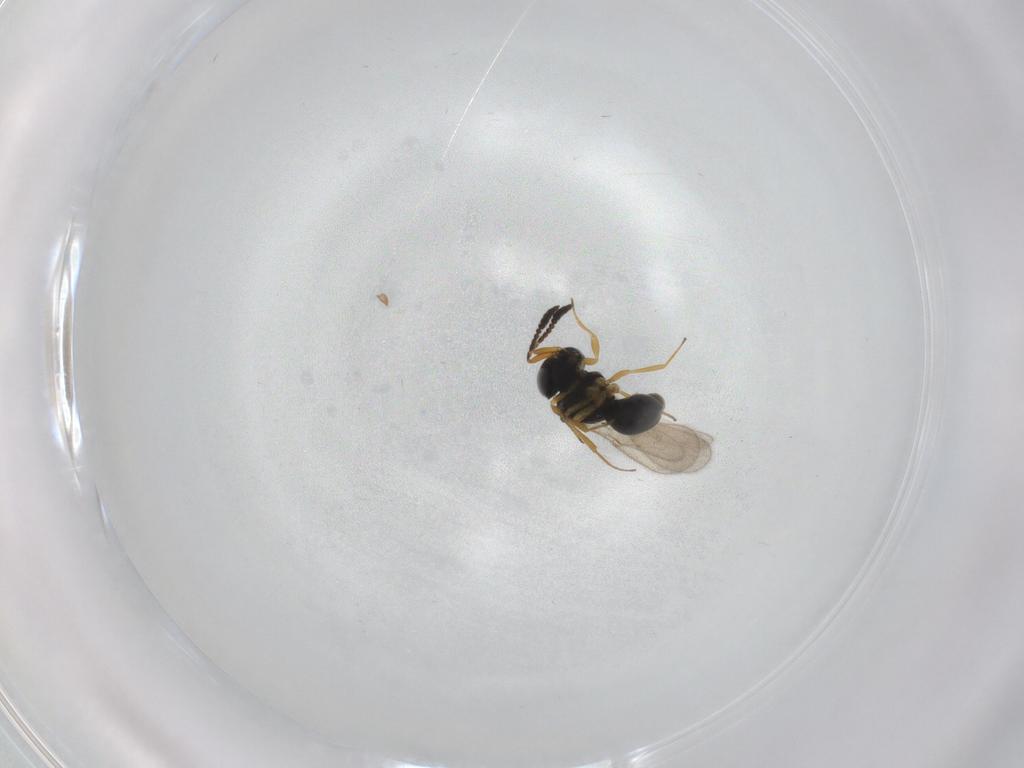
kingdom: Animalia
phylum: Arthropoda
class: Insecta
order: Hymenoptera
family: Scelionidae
